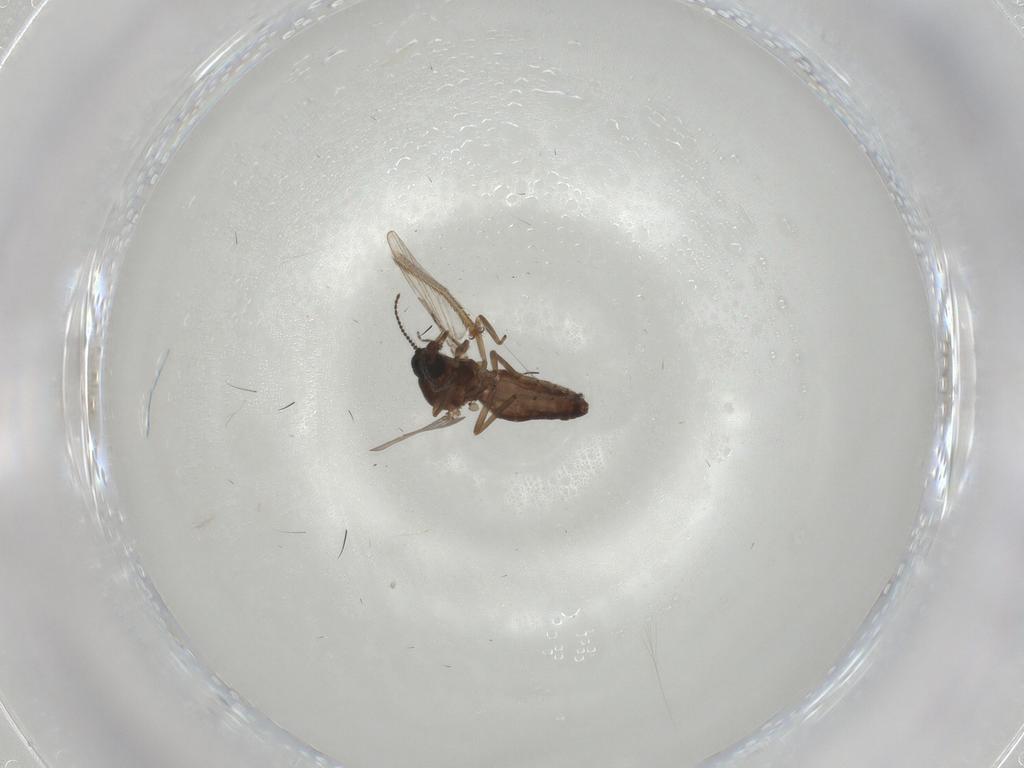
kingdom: Animalia
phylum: Arthropoda
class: Insecta
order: Diptera
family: Ceratopogonidae
